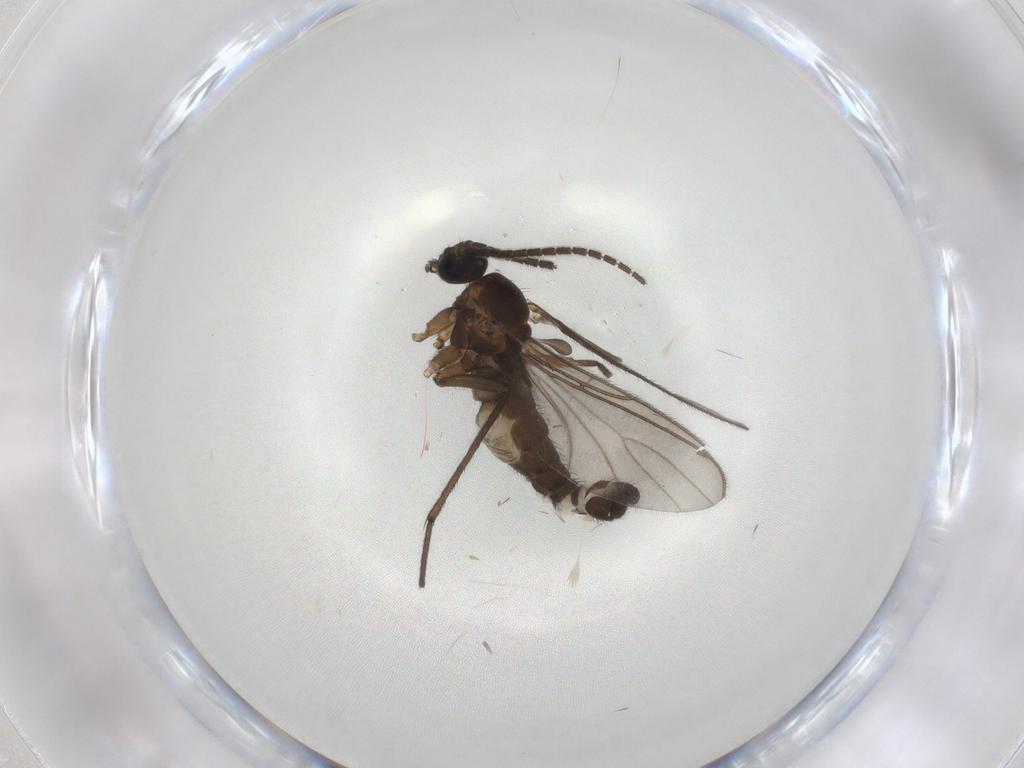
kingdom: Animalia
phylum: Arthropoda
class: Insecta
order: Diptera
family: Sciaridae
